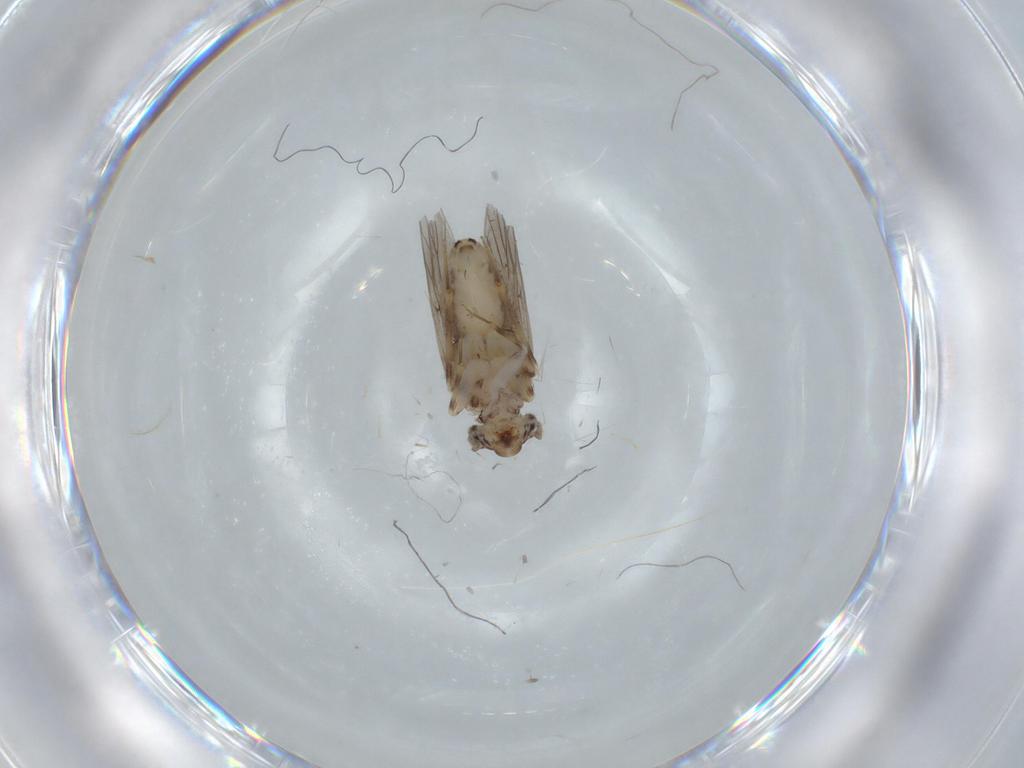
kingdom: Animalia
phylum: Arthropoda
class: Insecta
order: Psocodea
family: Lepidopsocidae
